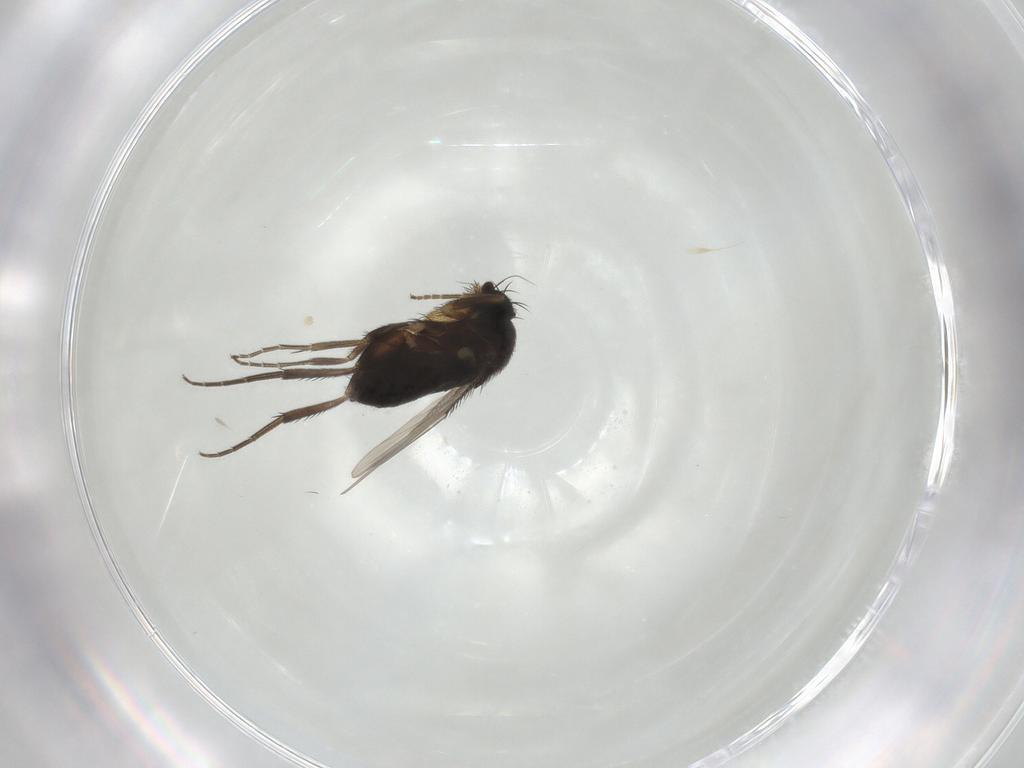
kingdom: Animalia
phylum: Arthropoda
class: Insecta
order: Diptera
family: Phoridae
